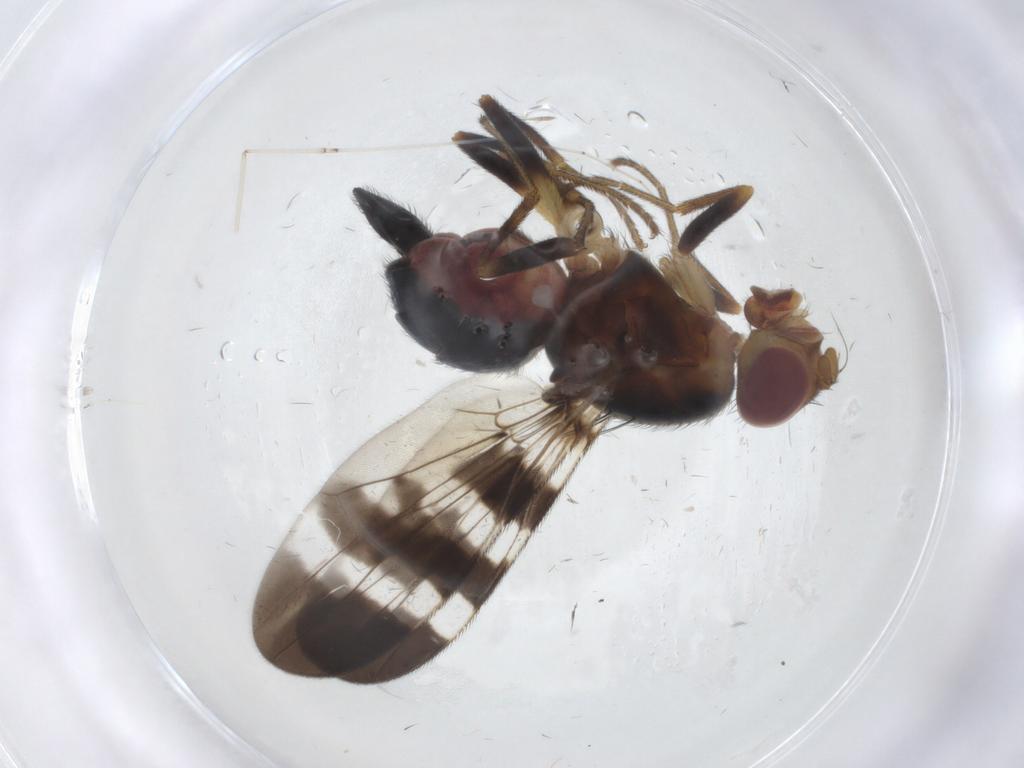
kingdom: Animalia
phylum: Arthropoda
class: Insecta
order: Diptera
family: Tephritidae
